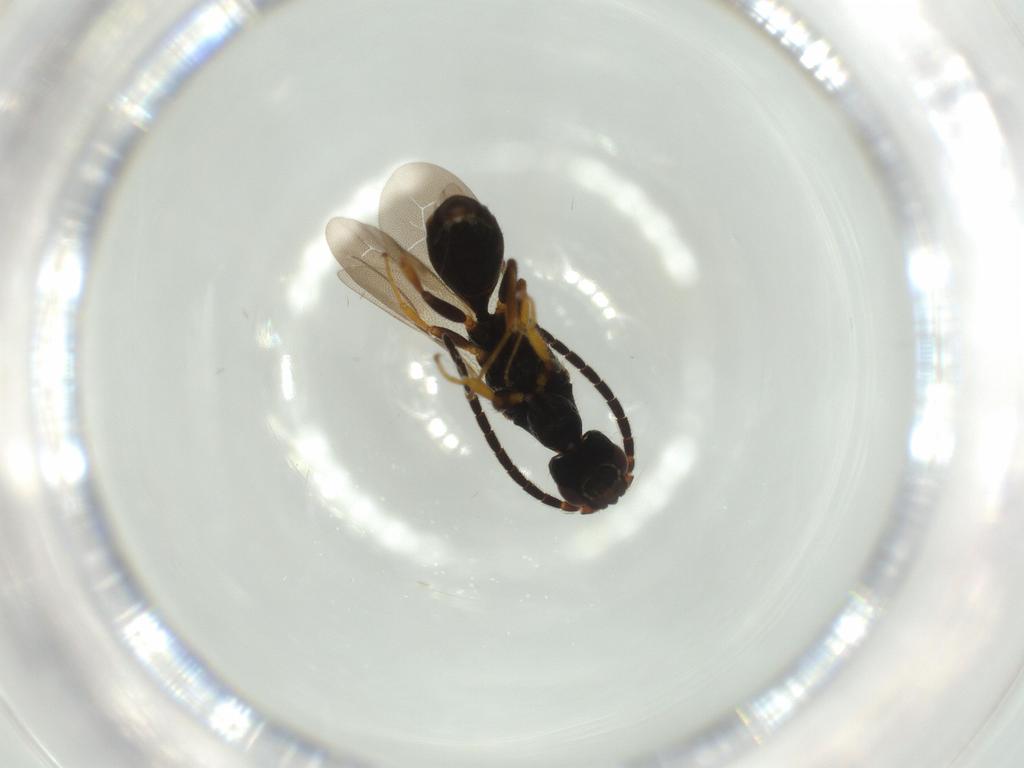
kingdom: Animalia
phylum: Arthropoda
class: Insecta
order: Hymenoptera
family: Bethylidae
